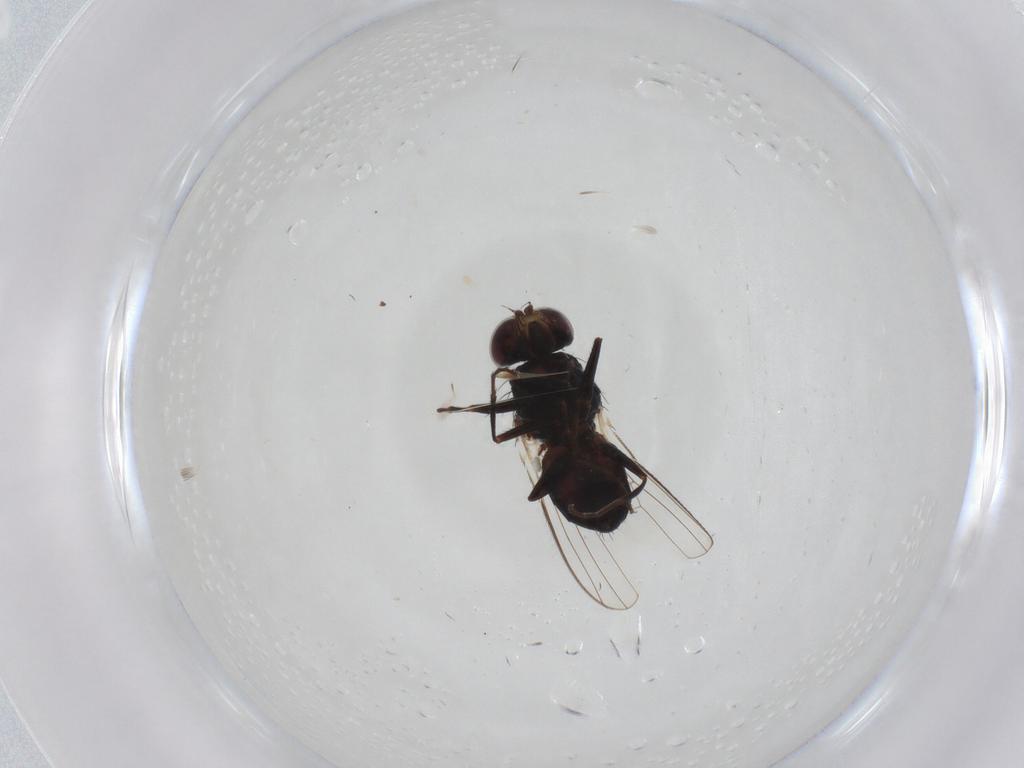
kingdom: Animalia
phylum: Arthropoda
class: Insecta
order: Diptera
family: Carnidae
